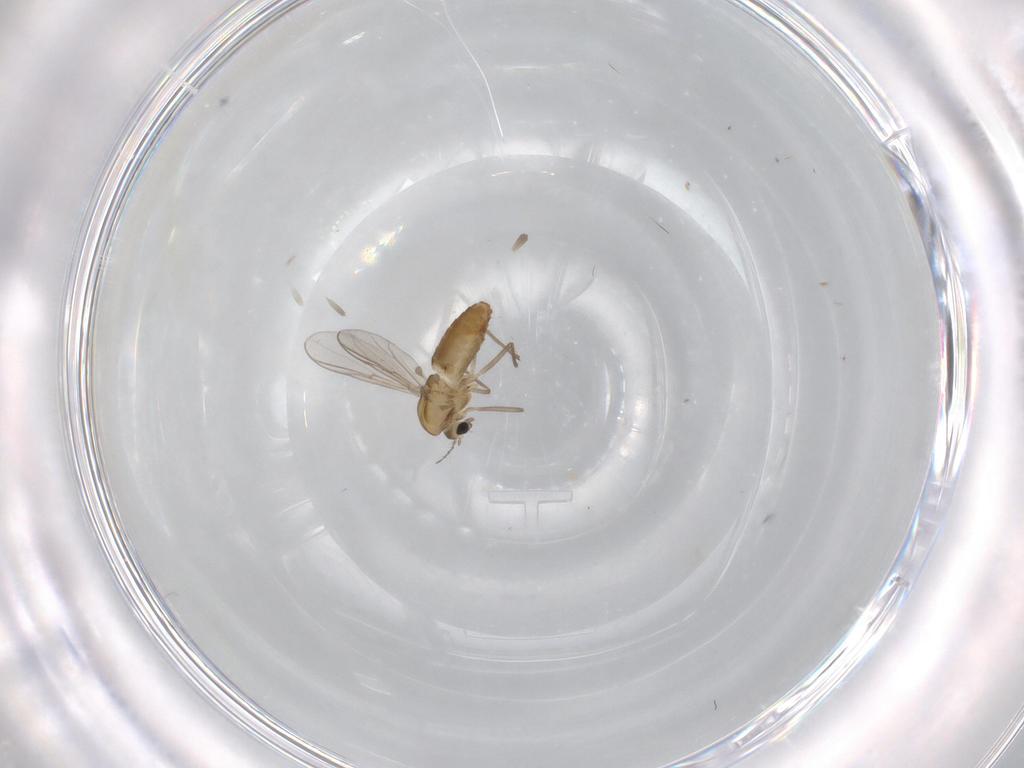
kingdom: Animalia
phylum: Arthropoda
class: Insecta
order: Diptera
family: Chironomidae
